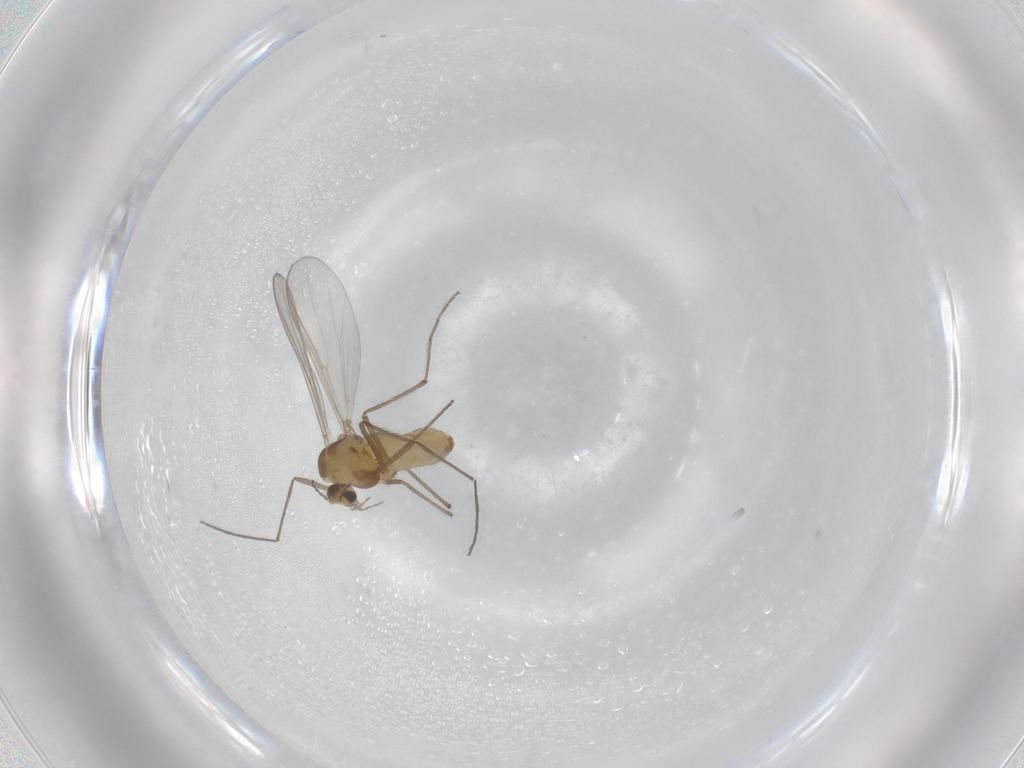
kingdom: Animalia
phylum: Arthropoda
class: Insecta
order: Diptera
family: Chironomidae
